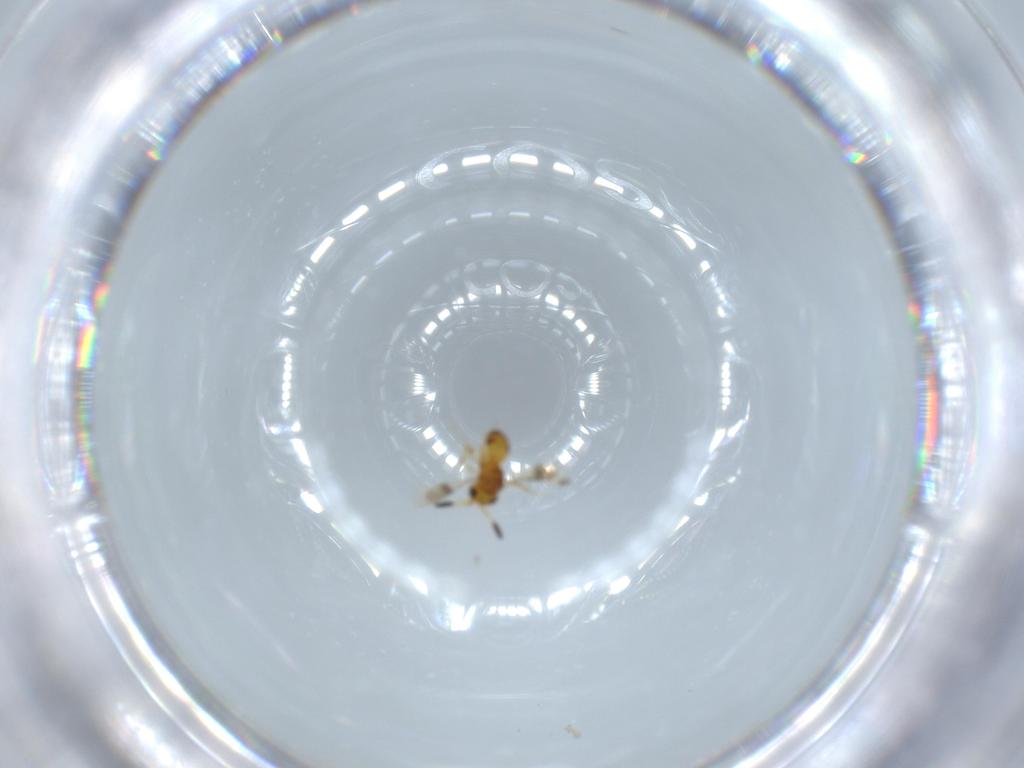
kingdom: Animalia
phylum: Arthropoda
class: Insecta
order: Hymenoptera
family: Scelionidae
